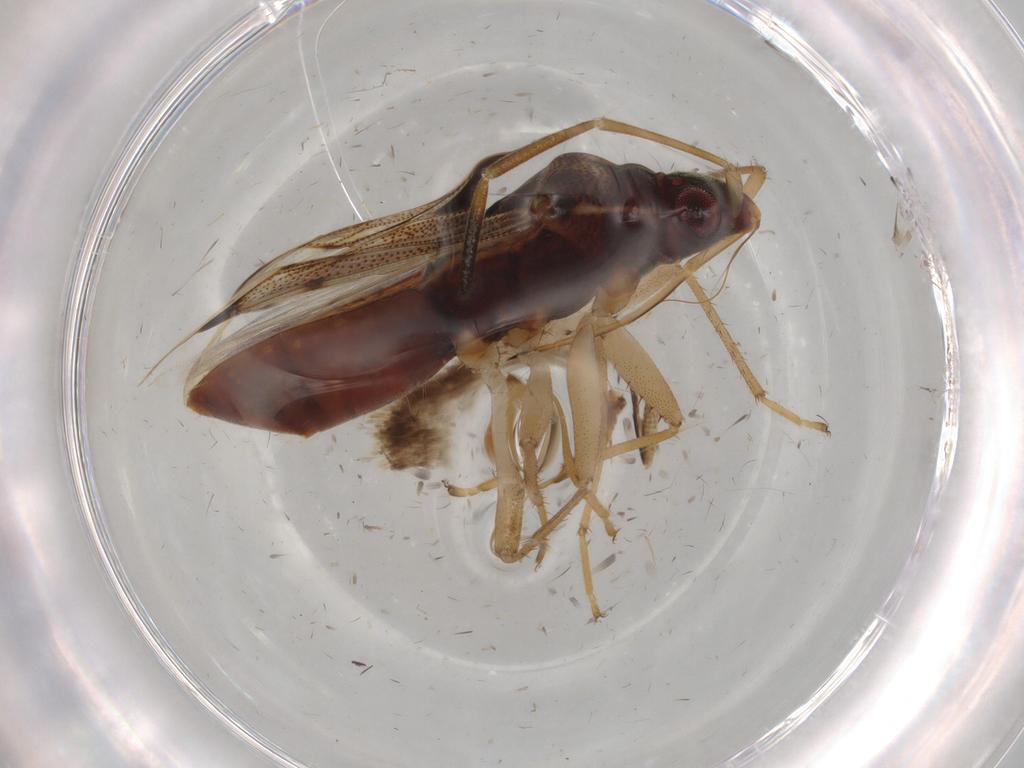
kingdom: Animalia
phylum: Arthropoda
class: Insecta
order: Hemiptera
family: Rhyparochromidae
